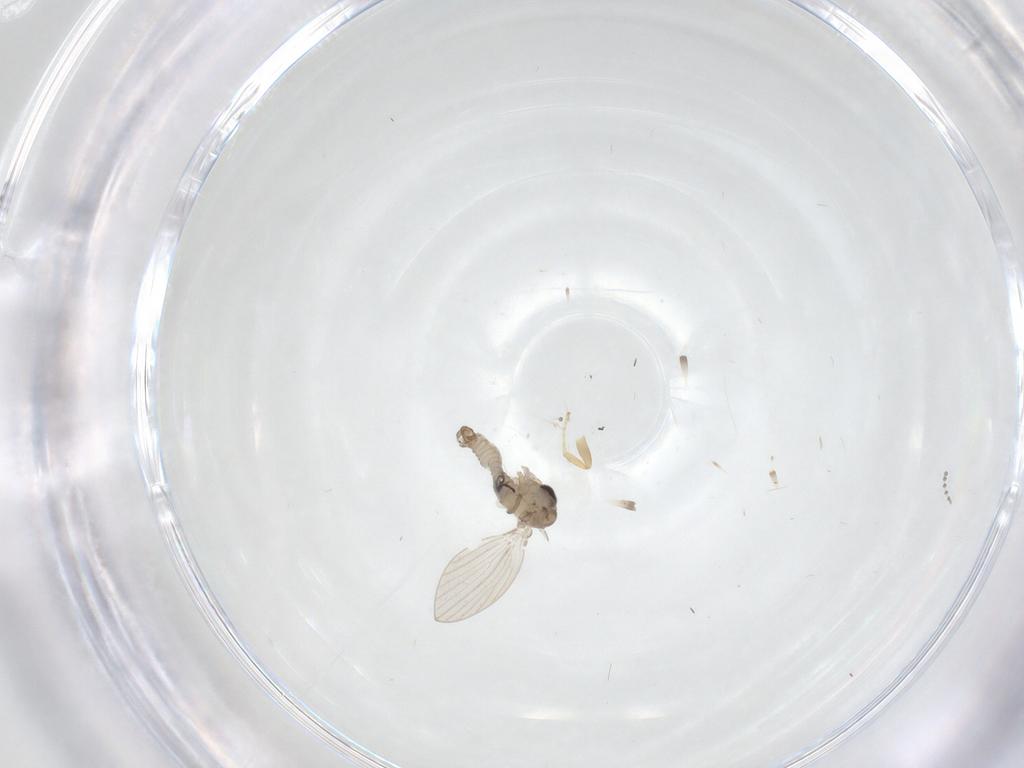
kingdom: Animalia
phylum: Arthropoda
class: Insecta
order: Diptera
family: Psychodidae
